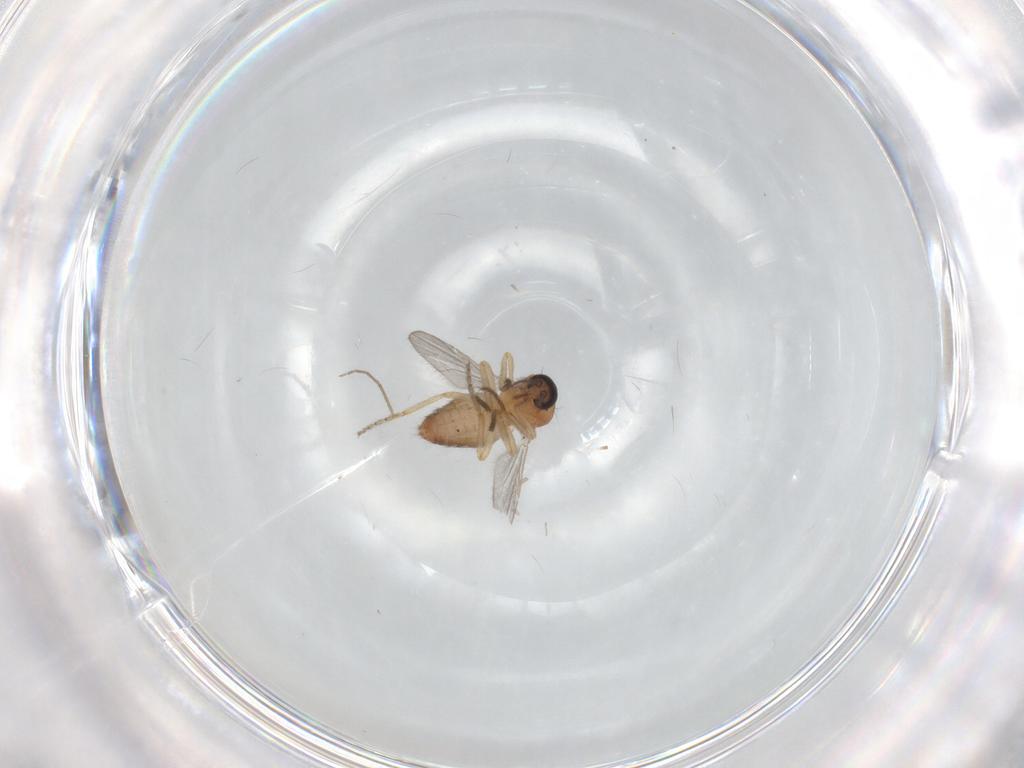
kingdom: Animalia
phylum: Arthropoda
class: Insecta
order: Diptera
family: Ceratopogonidae
